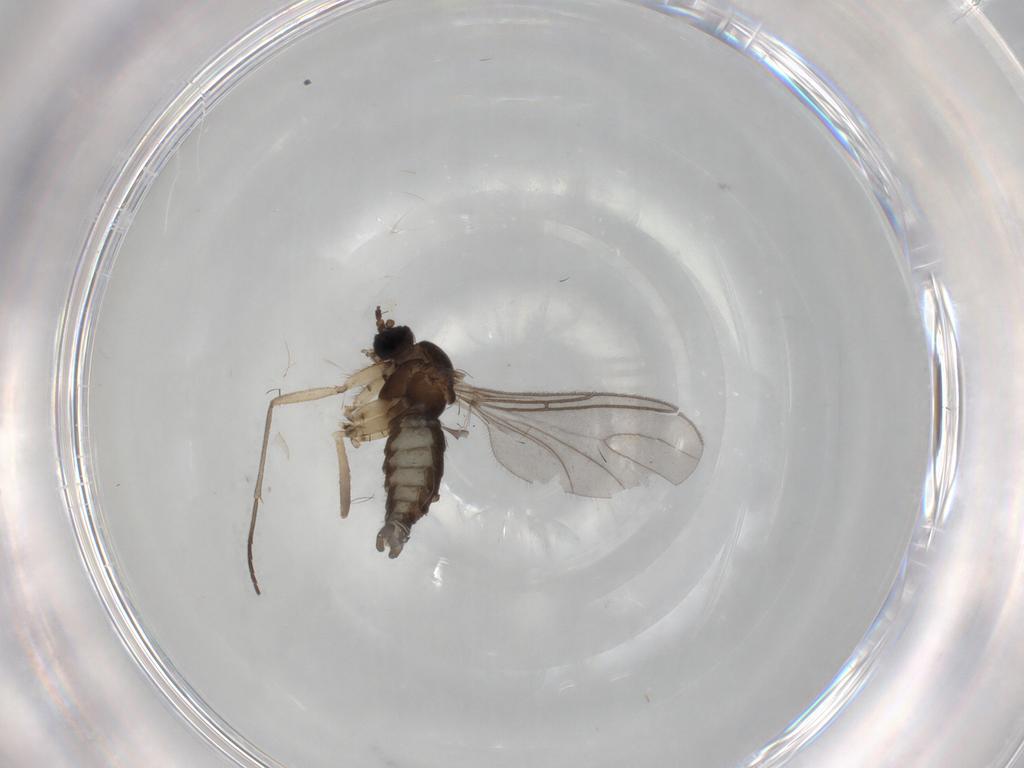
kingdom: Animalia
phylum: Arthropoda
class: Insecta
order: Diptera
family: Sciaridae
